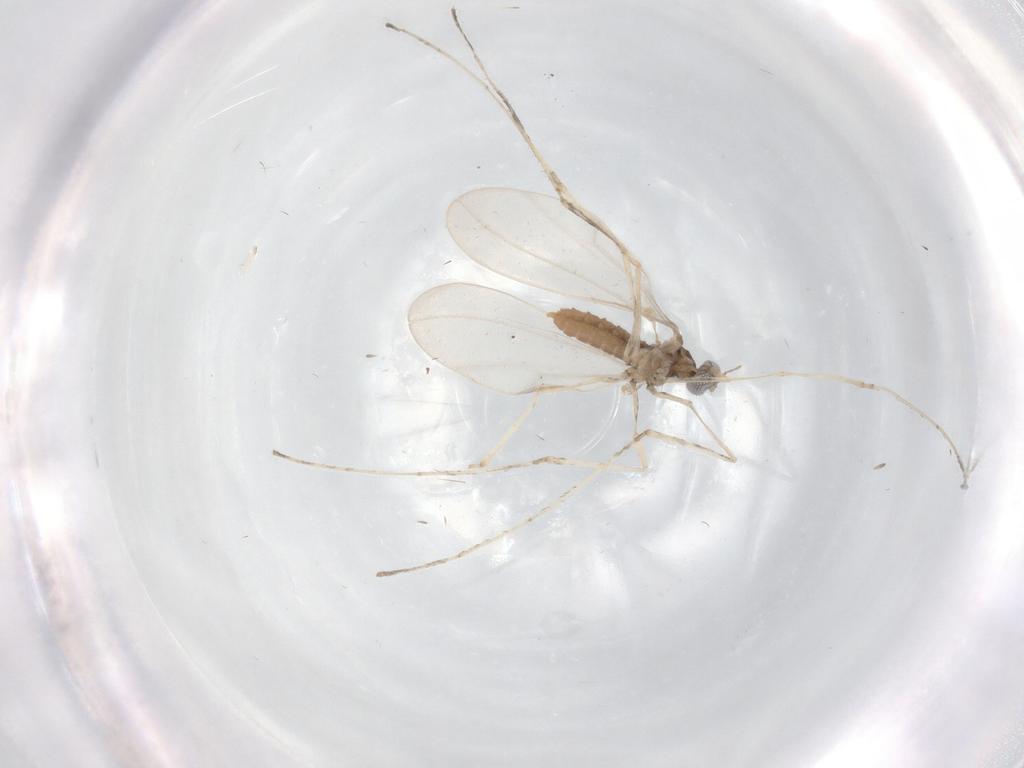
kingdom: Animalia
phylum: Arthropoda
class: Insecta
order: Diptera
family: Cecidomyiidae
